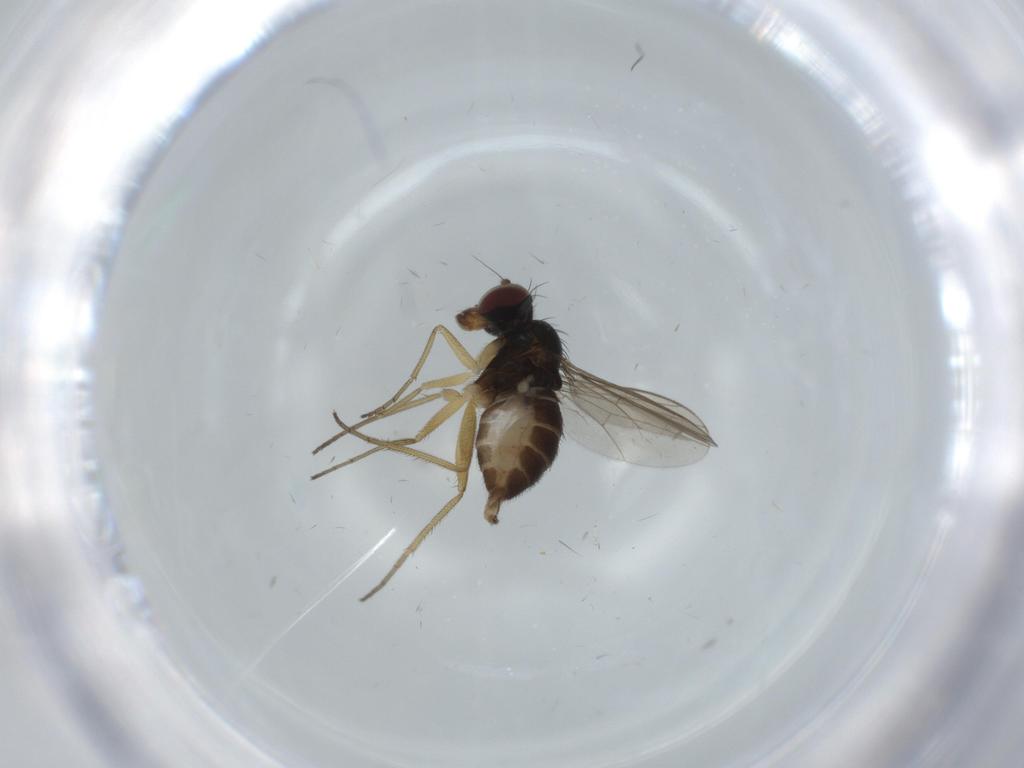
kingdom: Animalia
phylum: Arthropoda
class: Insecta
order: Diptera
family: Dolichopodidae
